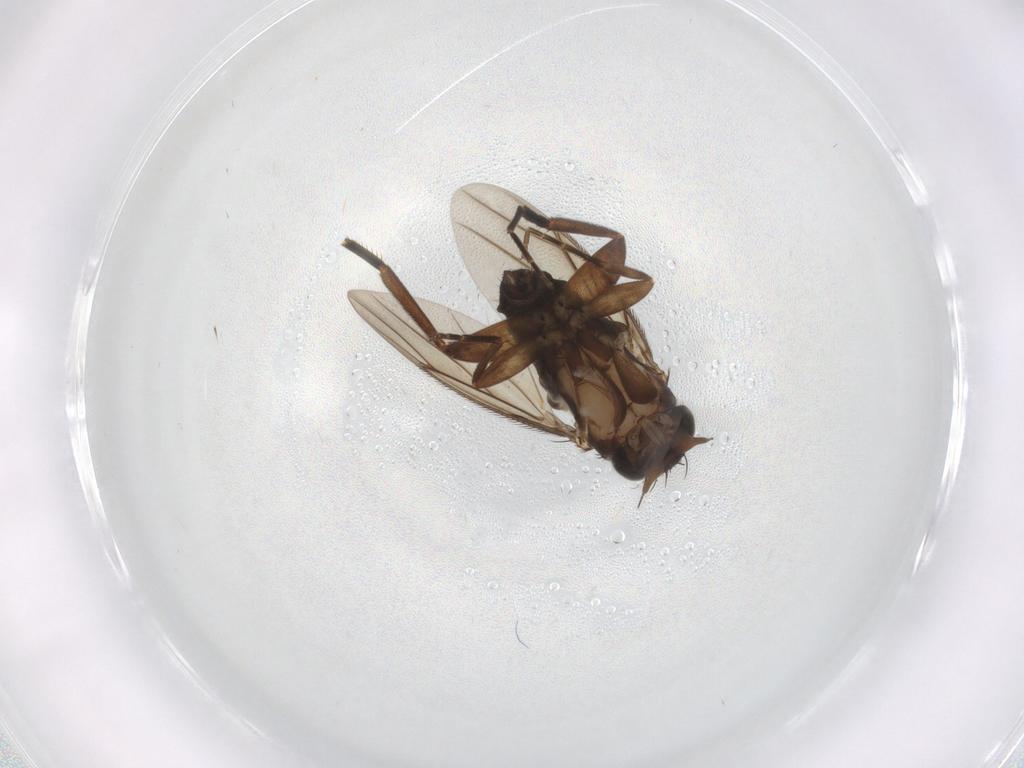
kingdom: Animalia
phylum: Arthropoda
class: Insecta
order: Diptera
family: Phoridae
